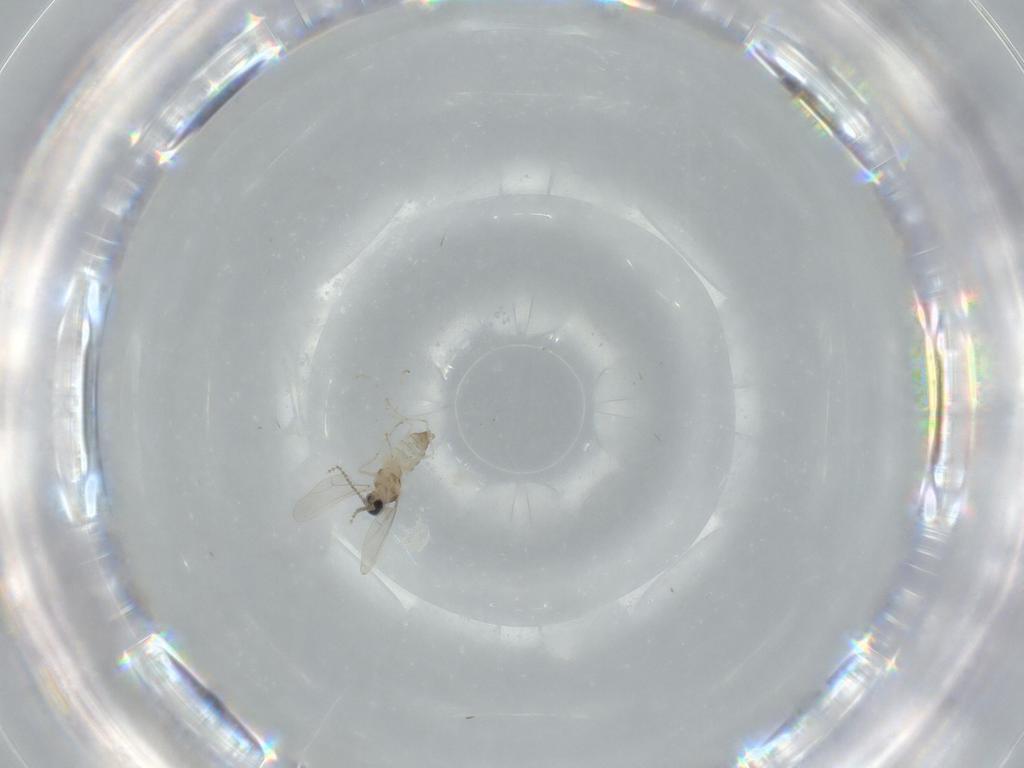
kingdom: Animalia
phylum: Arthropoda
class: Insecta
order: Diptera
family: Cecidomyiidae
